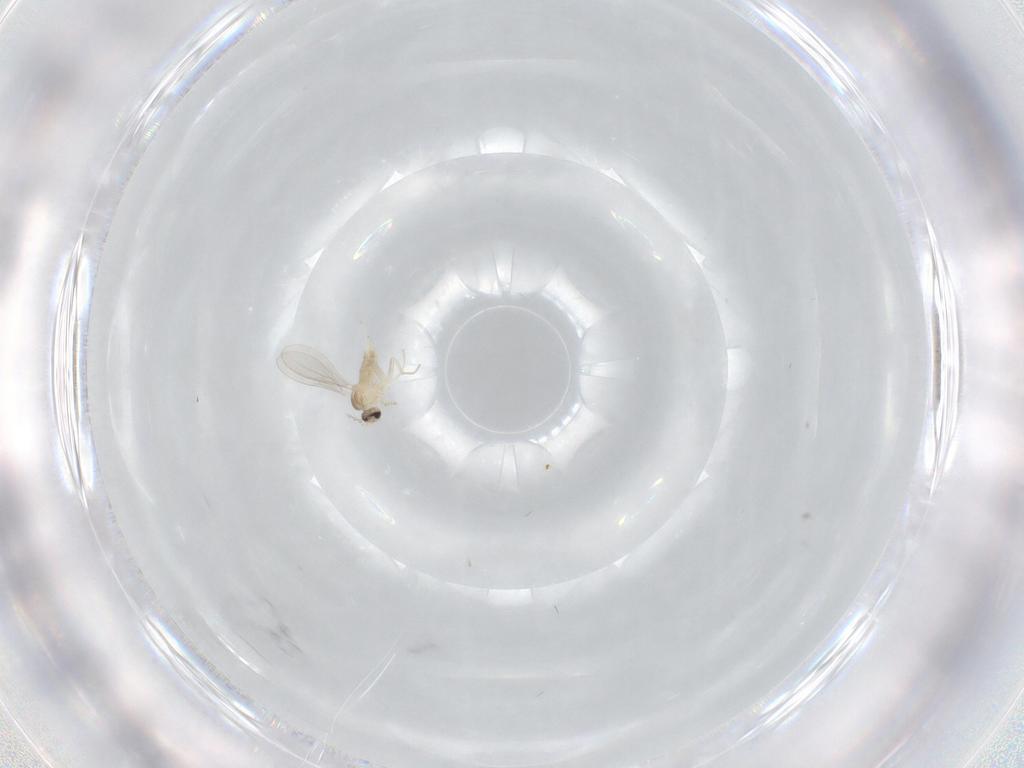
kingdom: Animalia
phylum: Arthropoda
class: Insecta
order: Diptera
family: Cecidomyiidae
